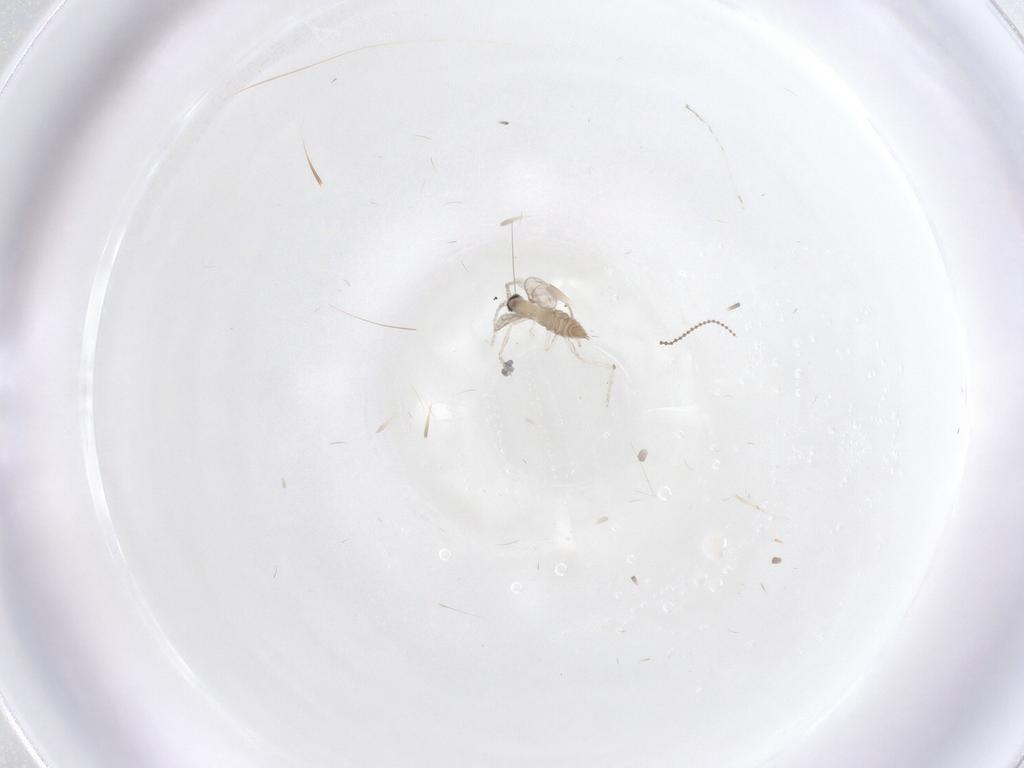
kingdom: Animalia
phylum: Arthropoda
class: Insecta
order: Diptera
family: Cecidomyiidae
